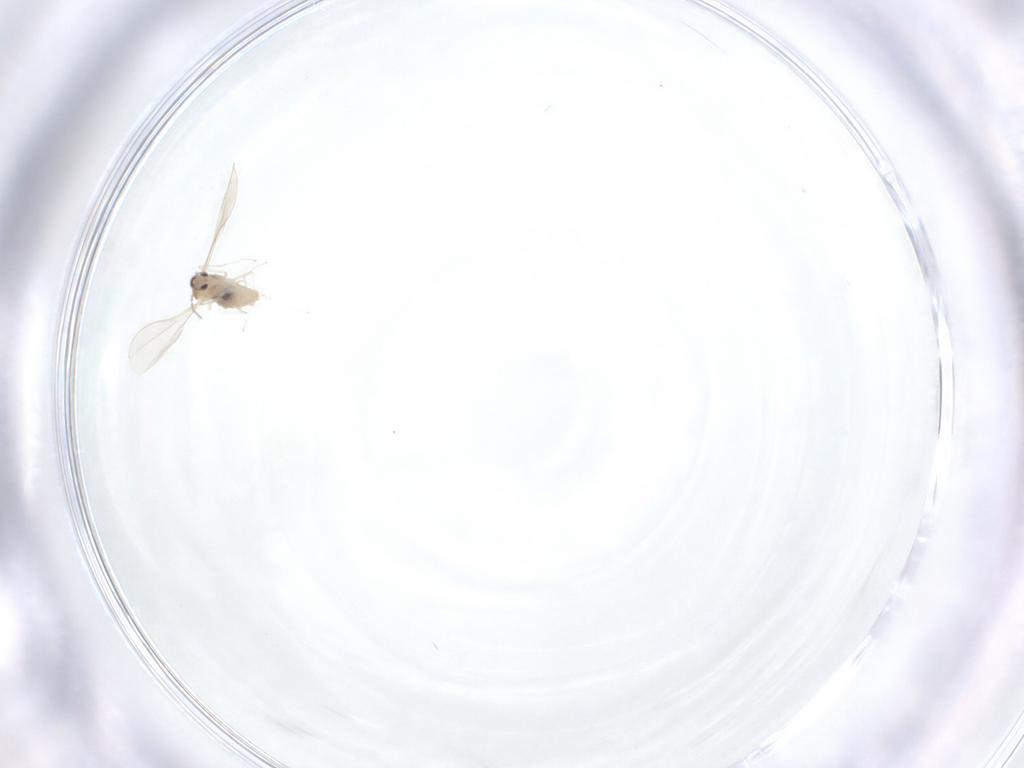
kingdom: Animalia
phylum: Arthropoda
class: Insecta
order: Diptera
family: Cecidomyiidae
